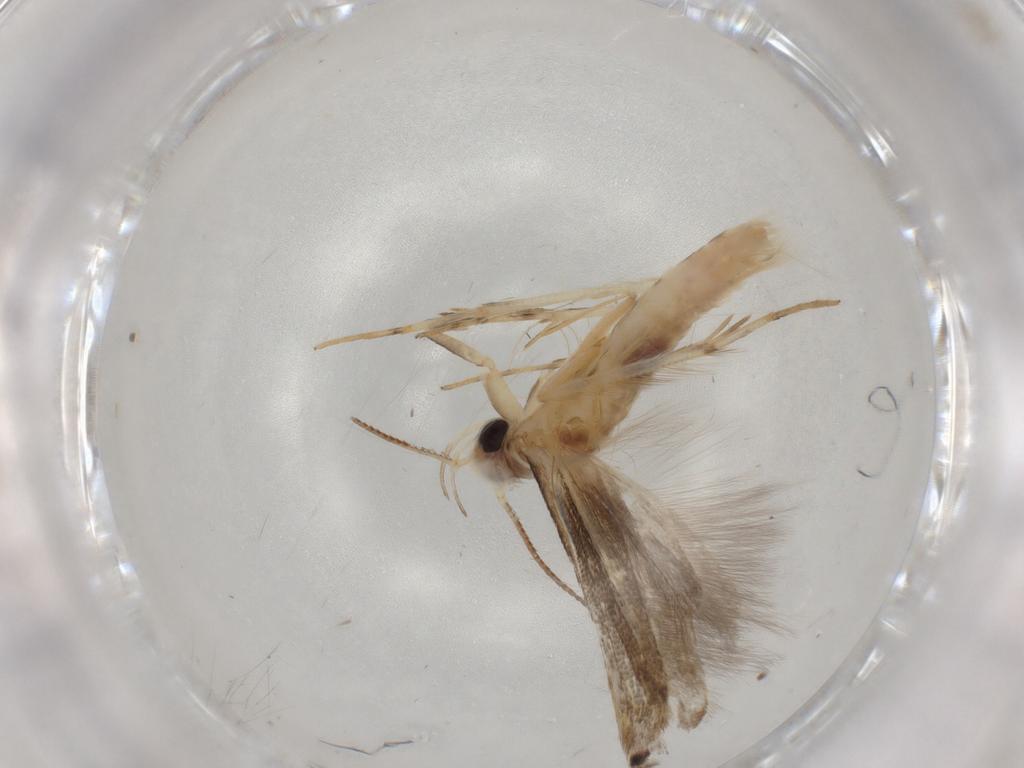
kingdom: Animalia
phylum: Arthropoda
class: Insecta
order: Lepidoptera
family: Gelechiidae
